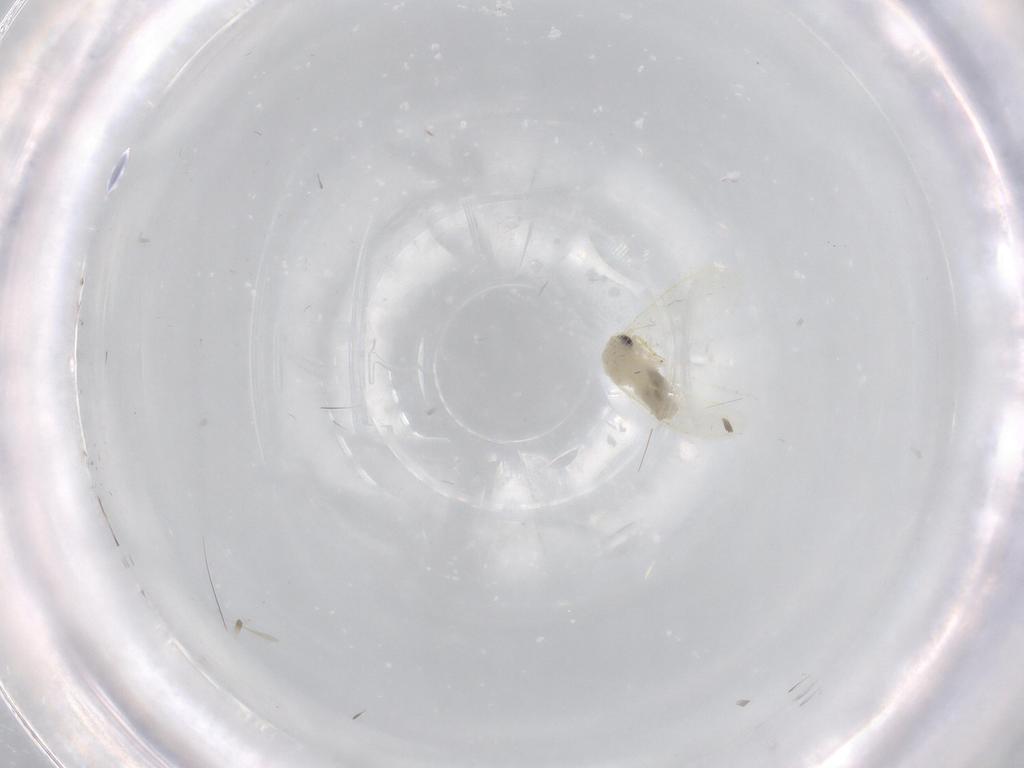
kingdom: Animalia
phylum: Arthropoda
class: Insecta
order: Hemiptera
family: Aleyrodidae
